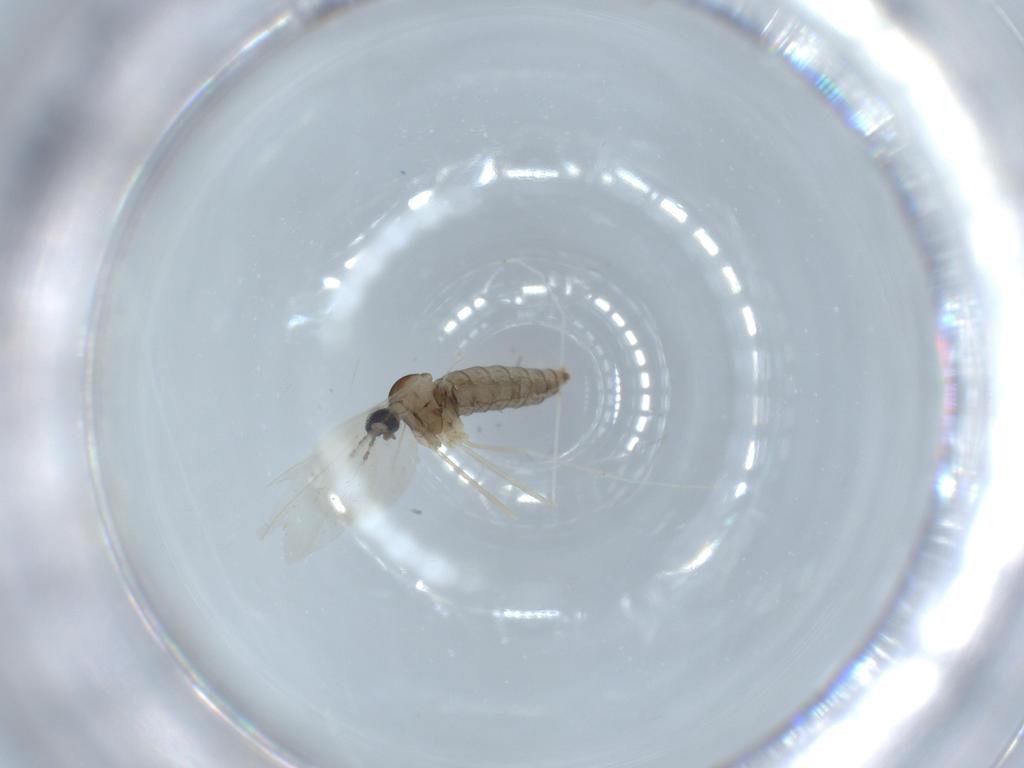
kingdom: Animalia
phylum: Arthropoda
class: Insecta
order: Diptera
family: Cecidomyiidae
